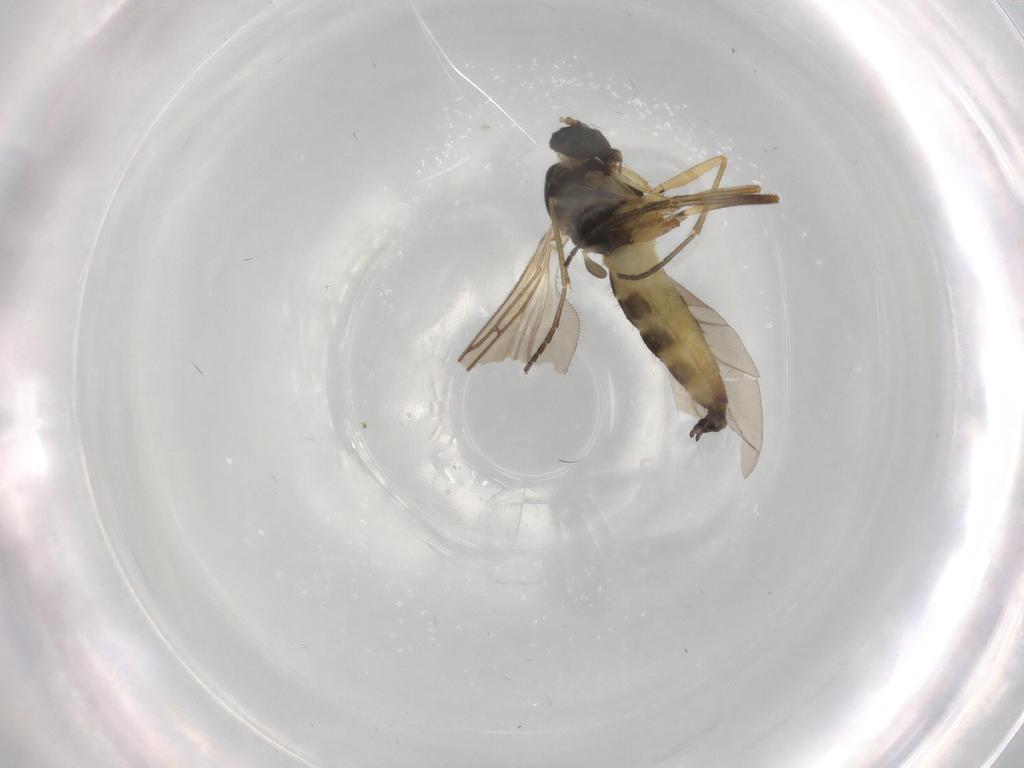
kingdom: Animalia
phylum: Arthropoda
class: Insecta
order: Diptera
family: Sciaridae
